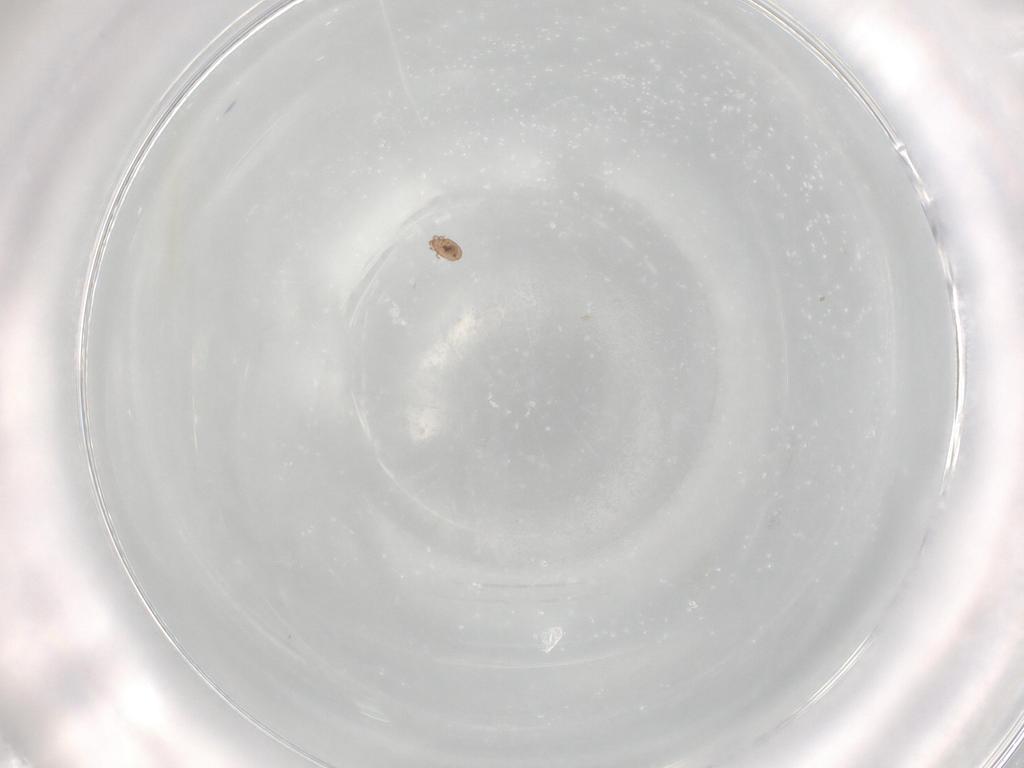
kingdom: Animalia
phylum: Arthropoda
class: Arachnida
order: Sarcoptiformes
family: Eremaeidae
